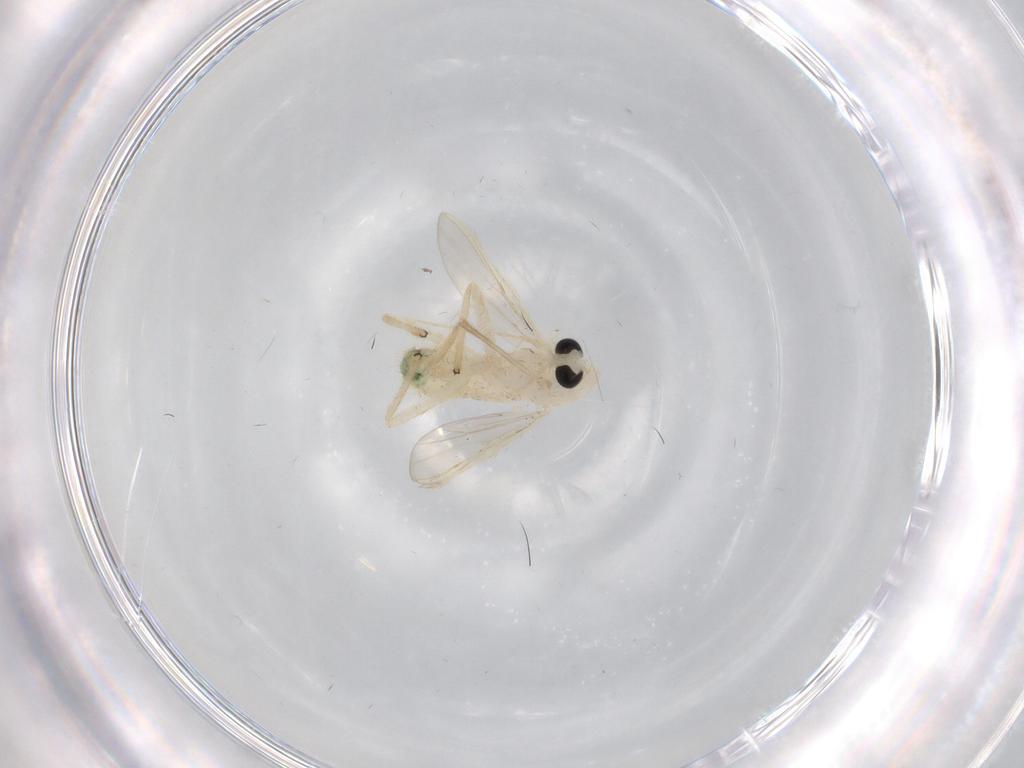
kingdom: Animalia
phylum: Arthropoda
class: Insecta
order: Diptera
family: Chironomidae
